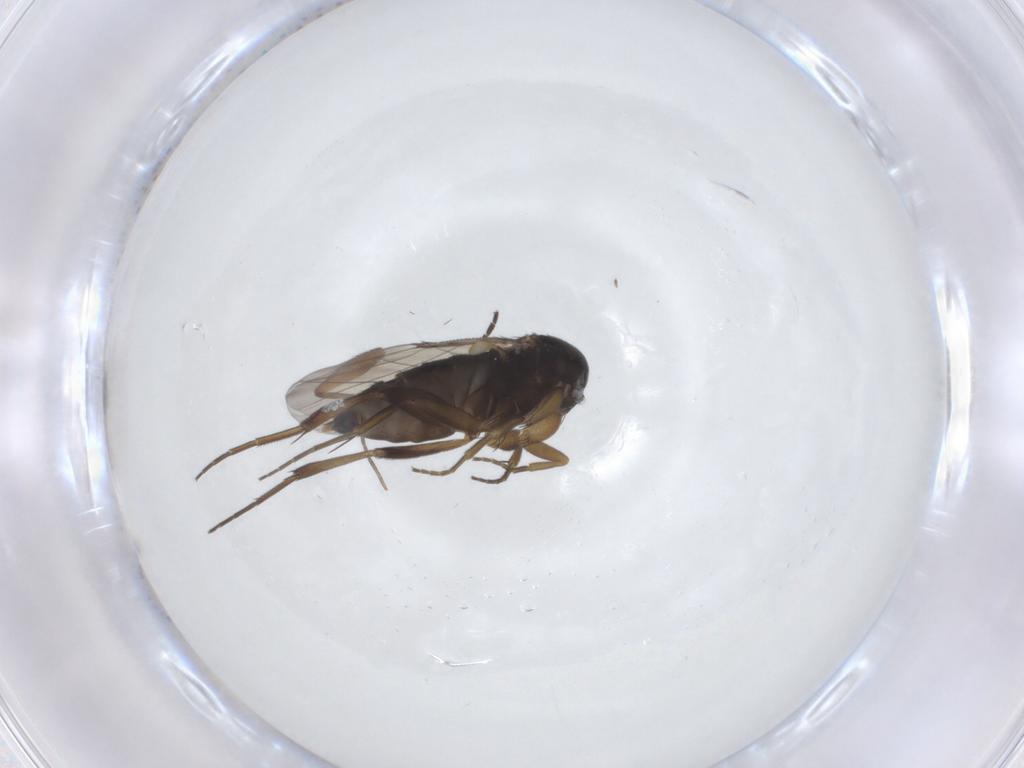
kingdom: Animalia
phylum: Arthropoda
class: Insecta
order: Diptera
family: Phoridae
